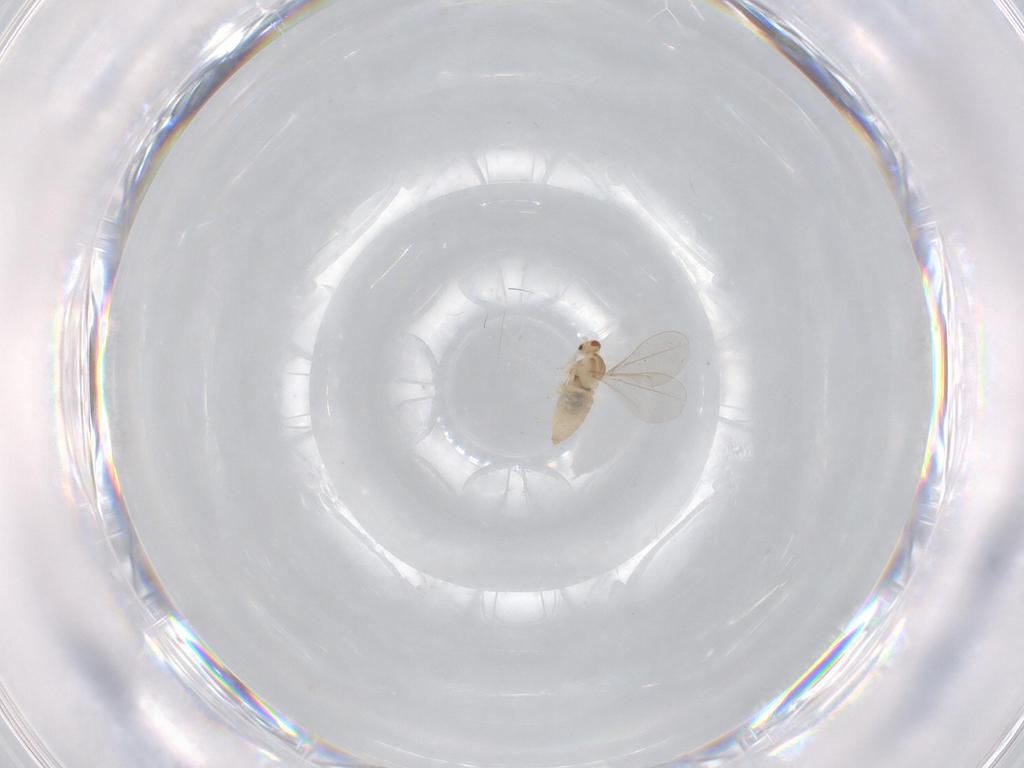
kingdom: Animalia
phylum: Arthropoda
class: Insecta
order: Diptera
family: Cecidomyiidae
